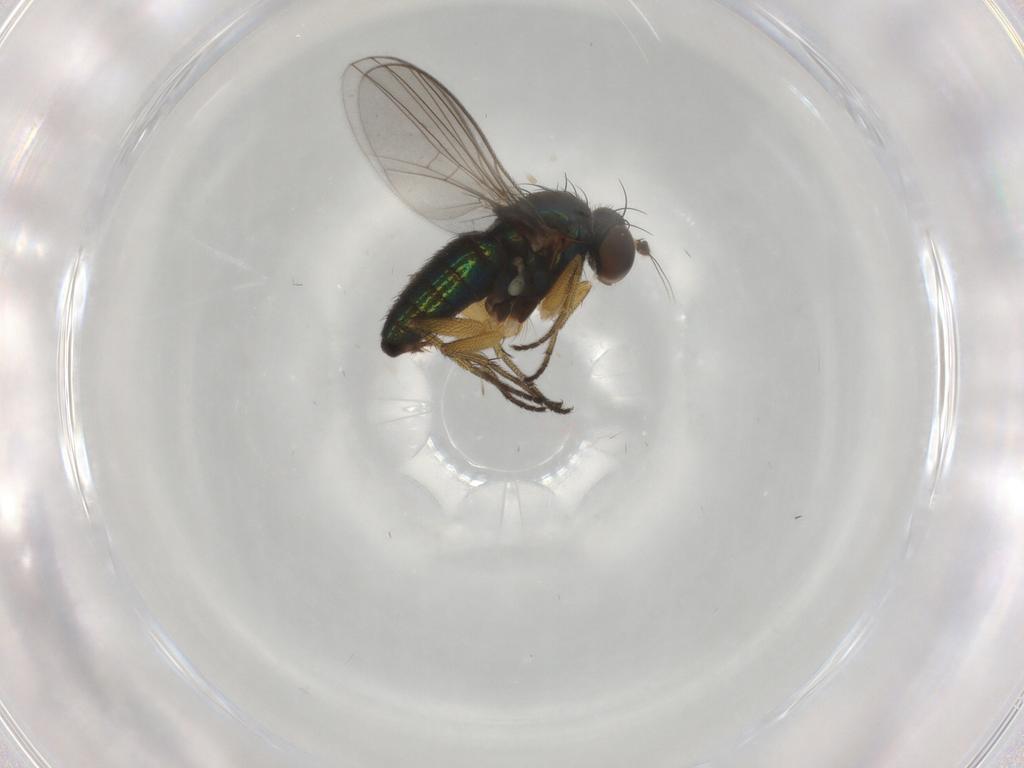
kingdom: Animalia
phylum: Arthropoda
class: Insecta
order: Diptera
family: Dolichopodidae
